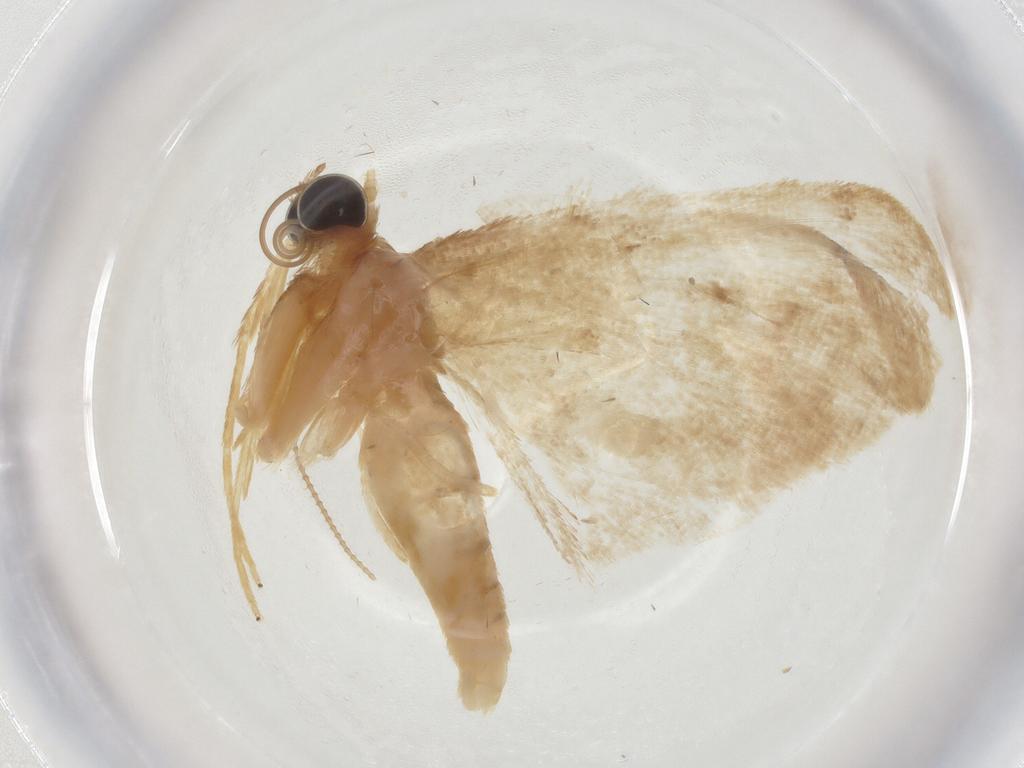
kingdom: Animalia
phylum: Arthropoda
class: Insecta
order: Lepidoptera
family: Geometridae
